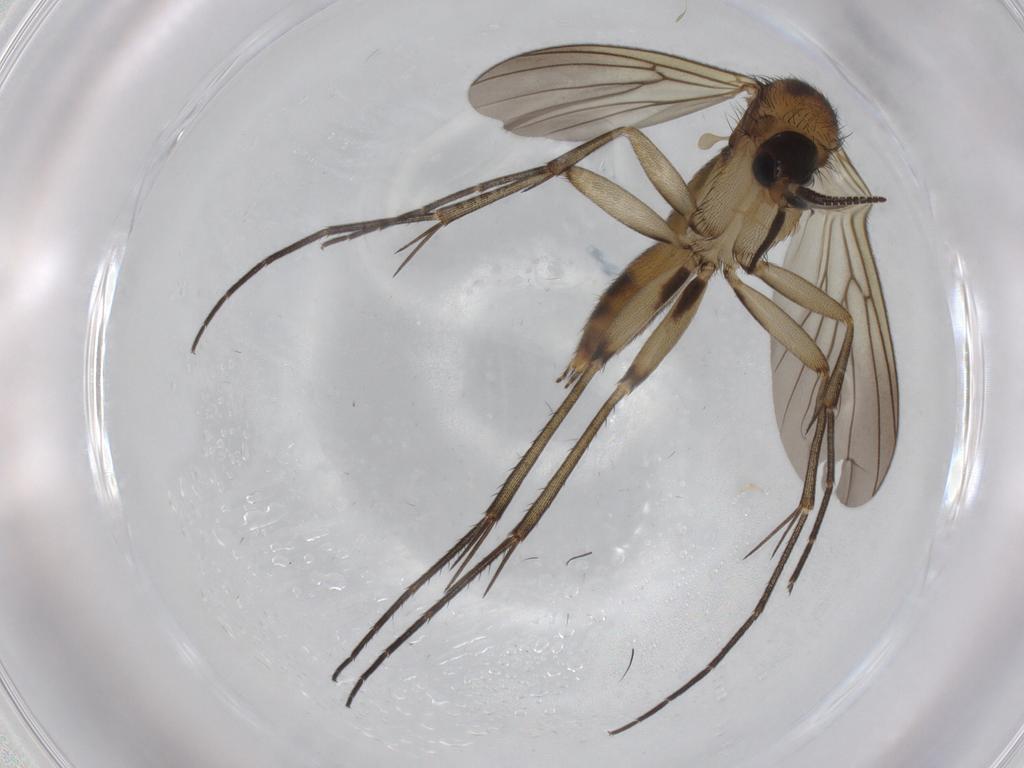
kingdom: Animalia
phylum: Arthropoda
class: Insecta
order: Diptera
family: Mycetophilidae
